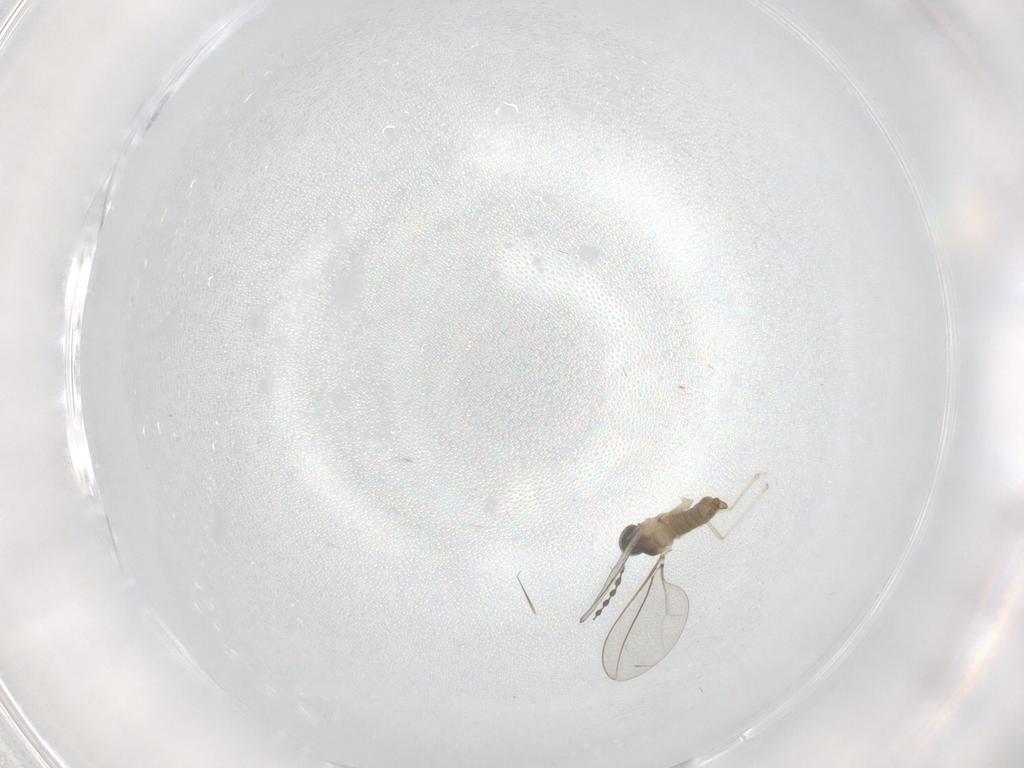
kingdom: Animalia
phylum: Arthropoda
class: Insecta
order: Diptera
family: Cecidomyiidae
